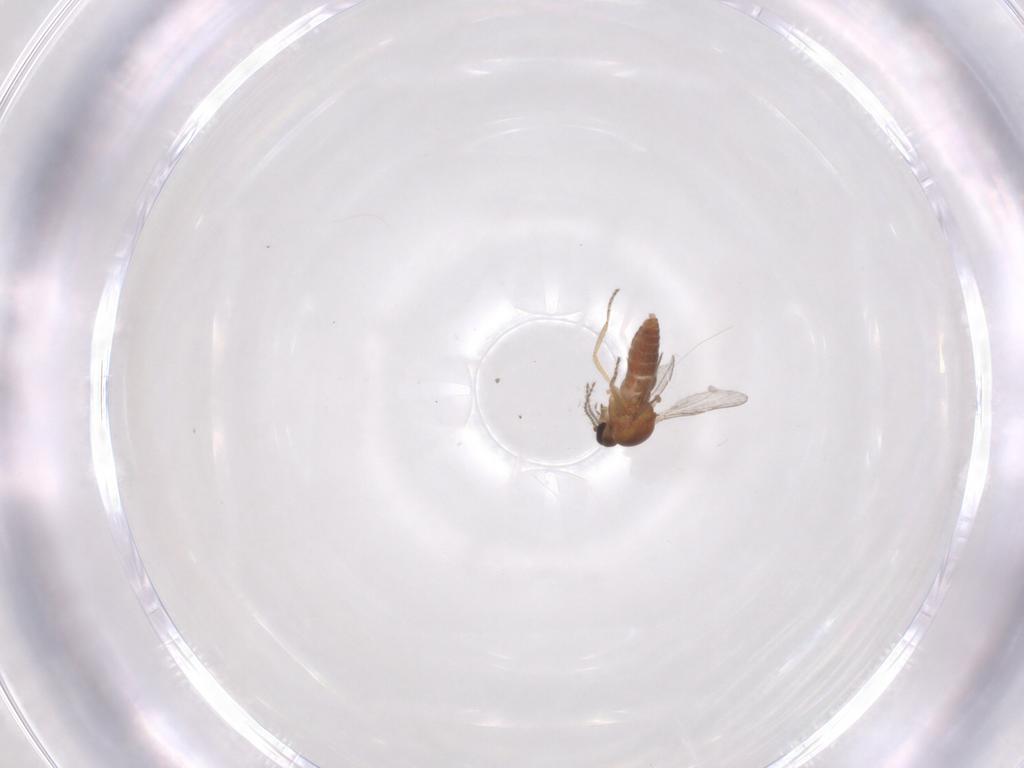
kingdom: Animalia
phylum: Arthropoda
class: Insecta
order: Diptera
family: Ceratopogonidae
